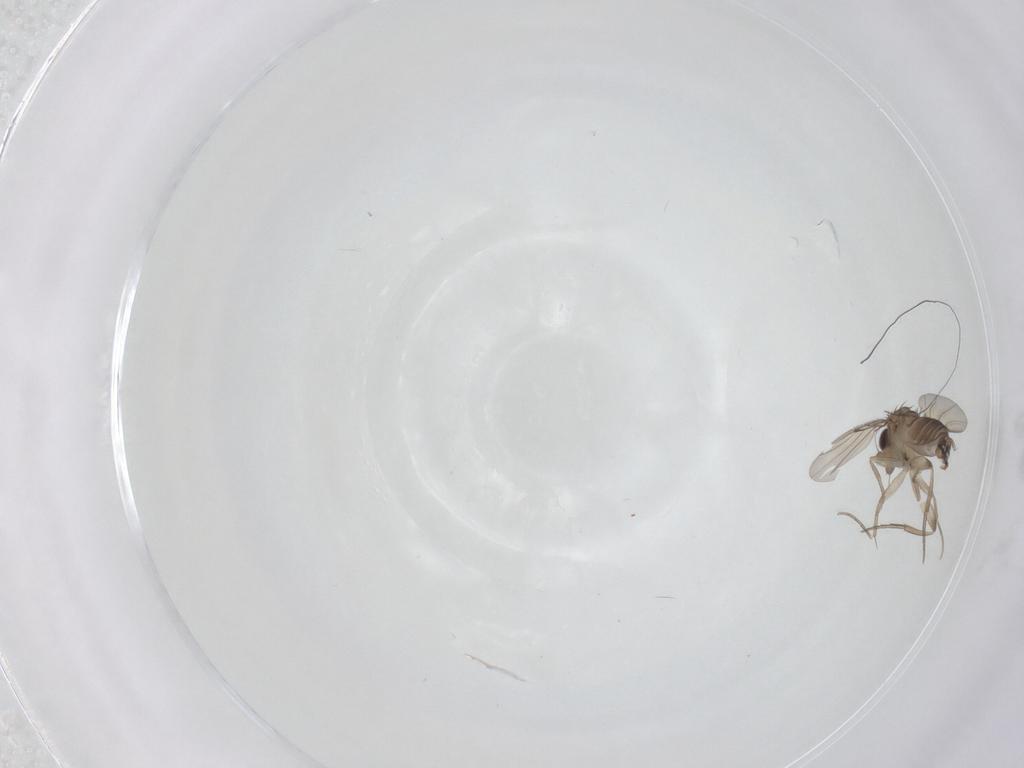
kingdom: Animalia
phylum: Arthropoda
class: Insecta
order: Diptera
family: Phoridae
